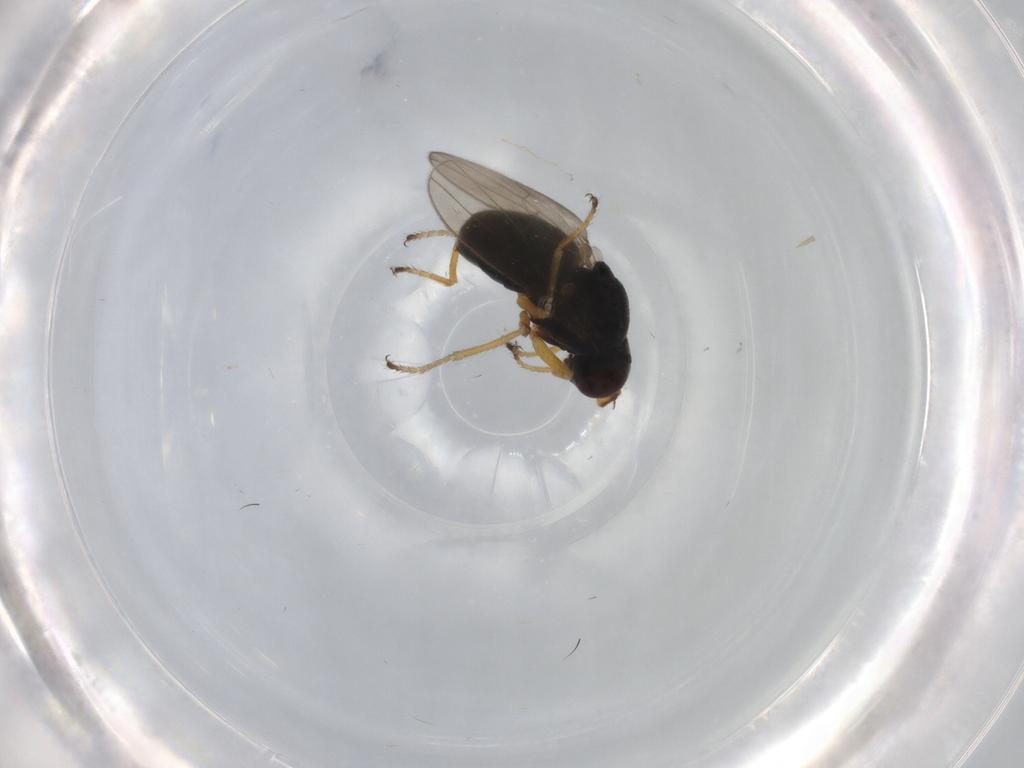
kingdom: Animalia
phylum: Arthropoda
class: Insecta
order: Diptera
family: Ephydridae
